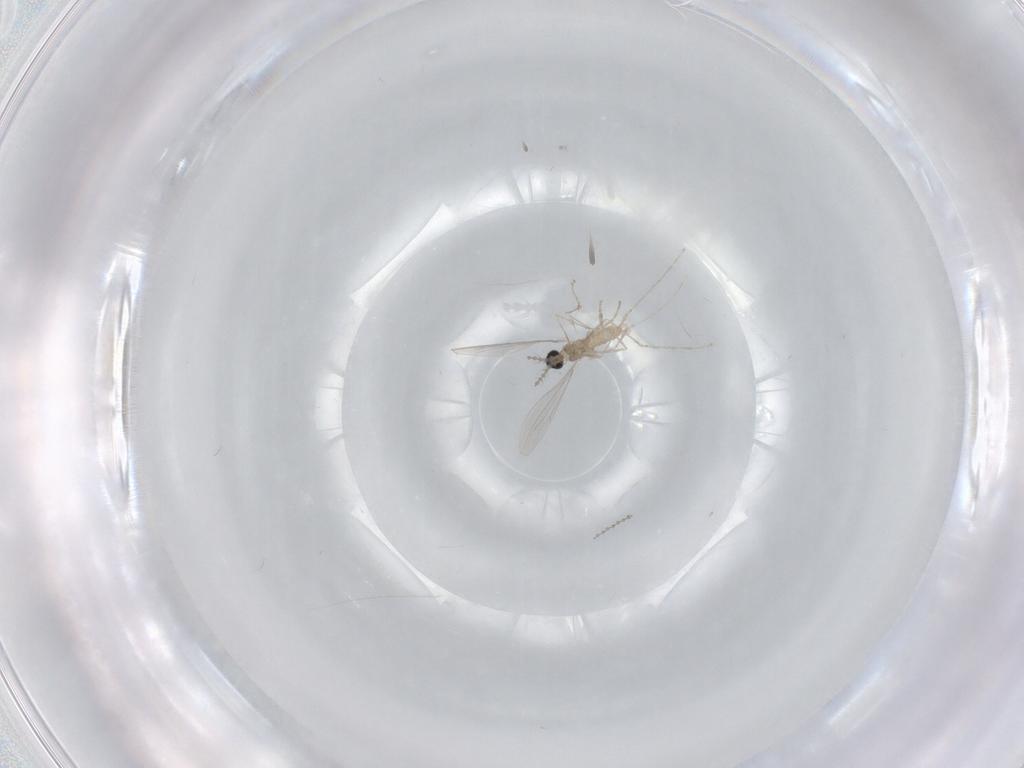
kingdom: Animalia
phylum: Arthropoda
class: Insecta
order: Diptera
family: Cecidomyiidae
